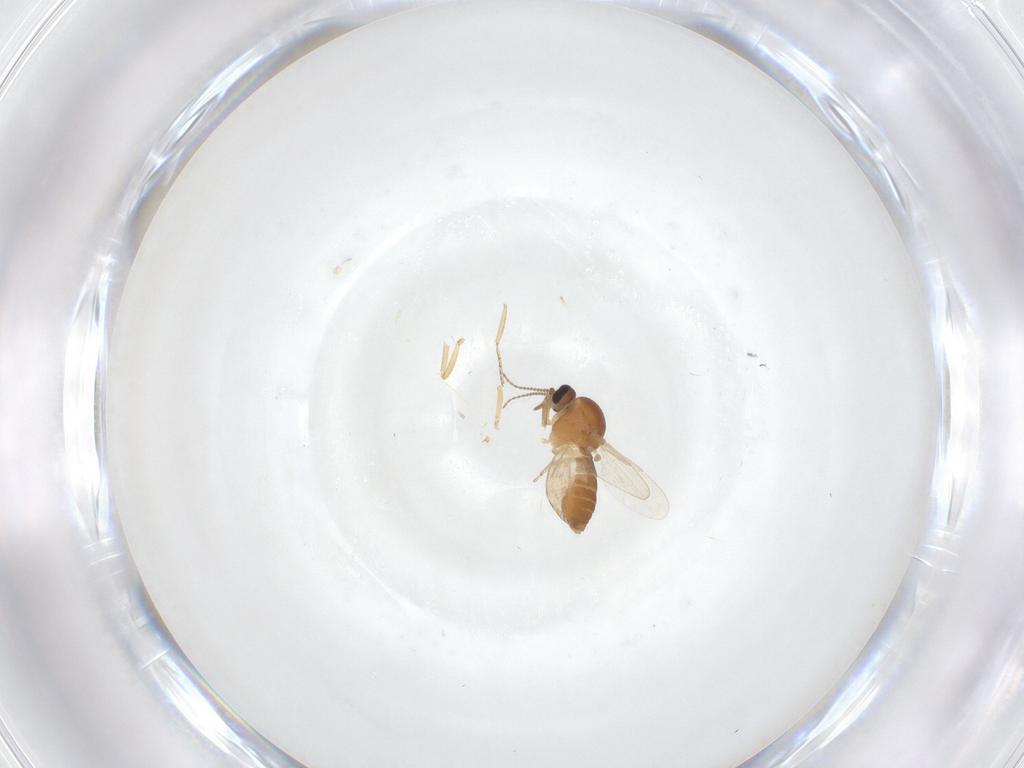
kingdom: Animalia
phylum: Arthropoda
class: Insecta
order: Diptera
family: Ceratopogonidae
